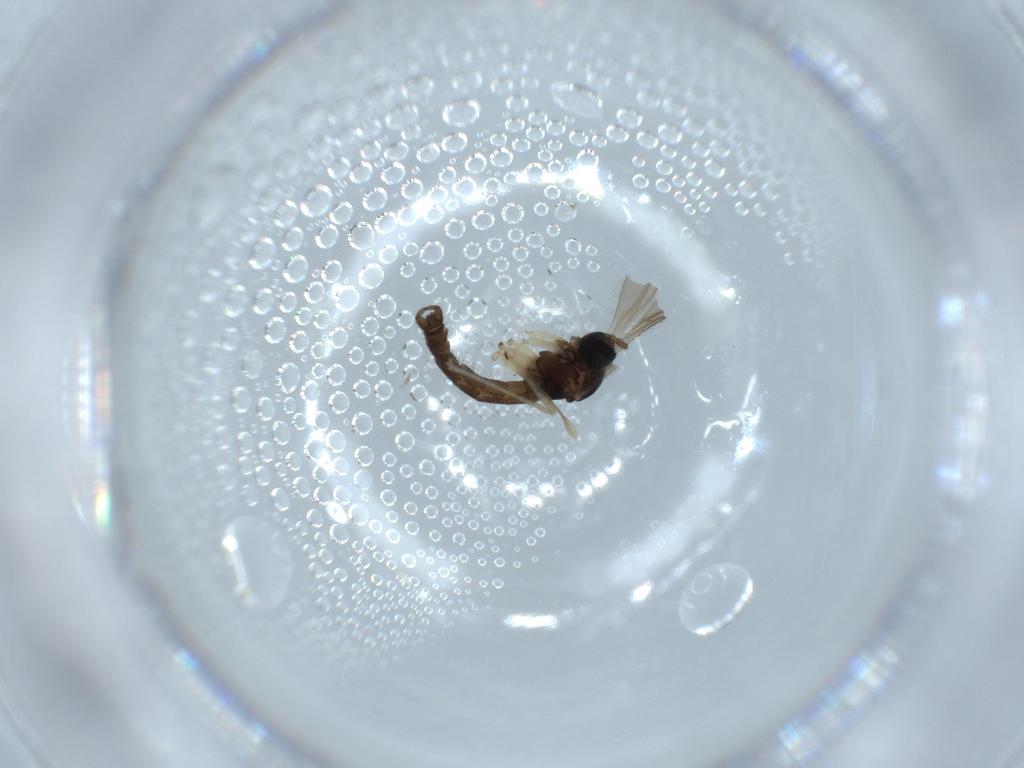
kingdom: Animalia
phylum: Arthropoda
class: Insecta
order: Diptera
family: Sciaridae
